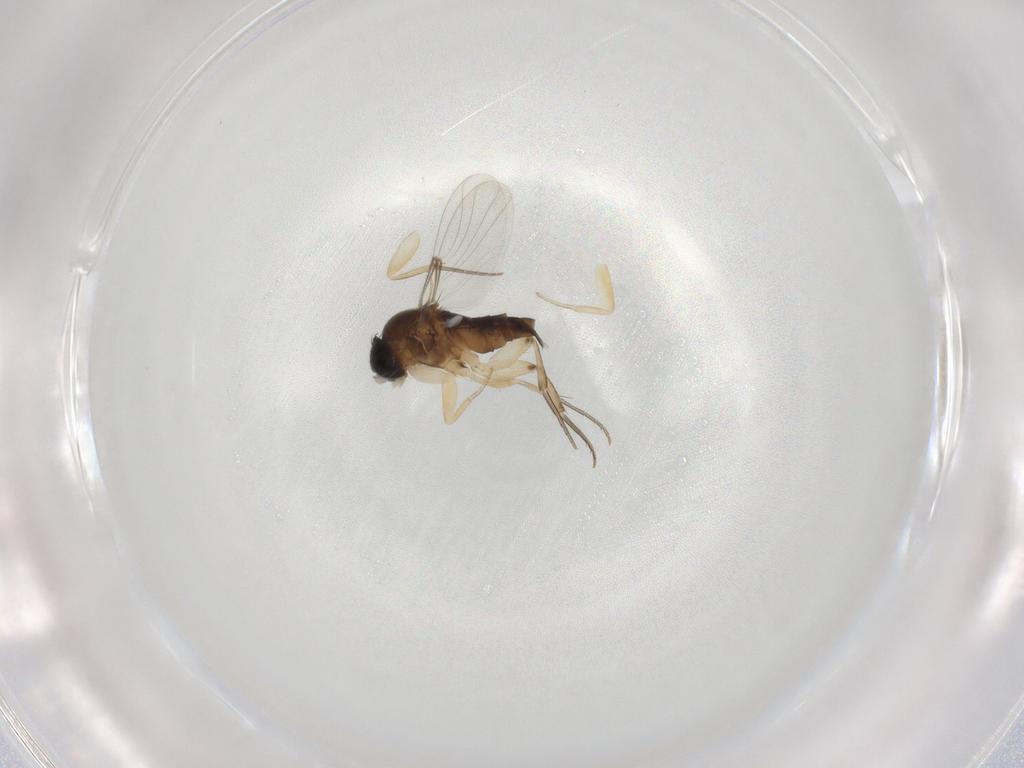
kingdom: Animalia
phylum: Arthropoda
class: Insecta
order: Diptera
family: Phoridae
